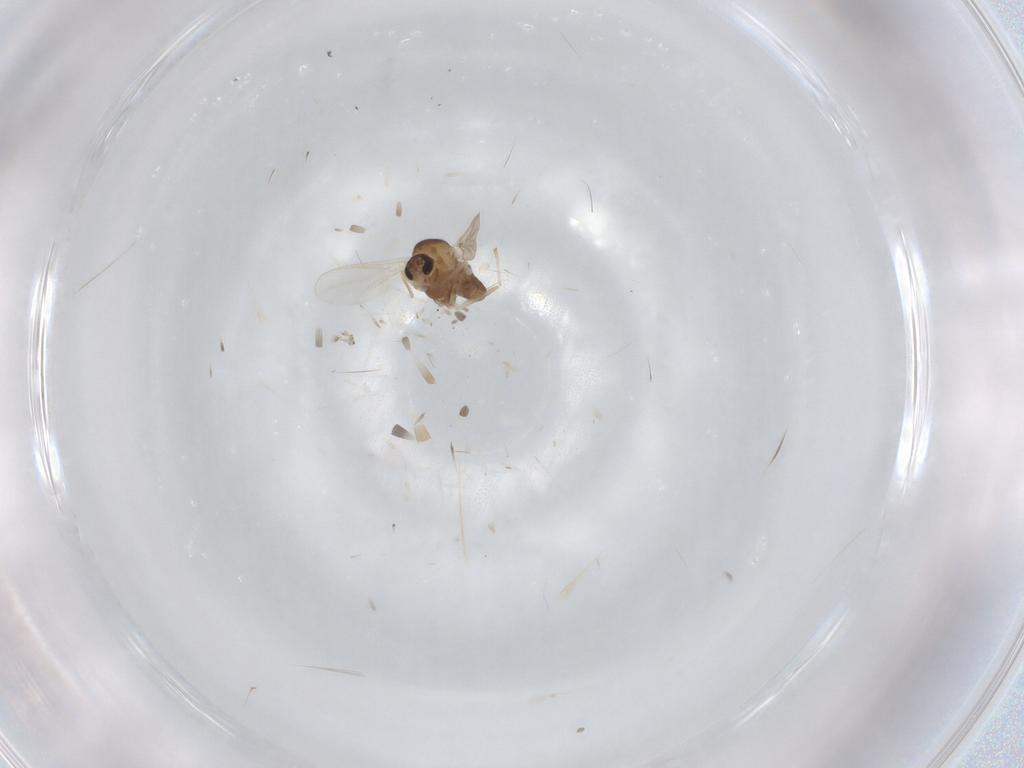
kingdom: Animalia
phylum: Arthropoda
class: Insecta
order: Diptera
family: Chironomidae
